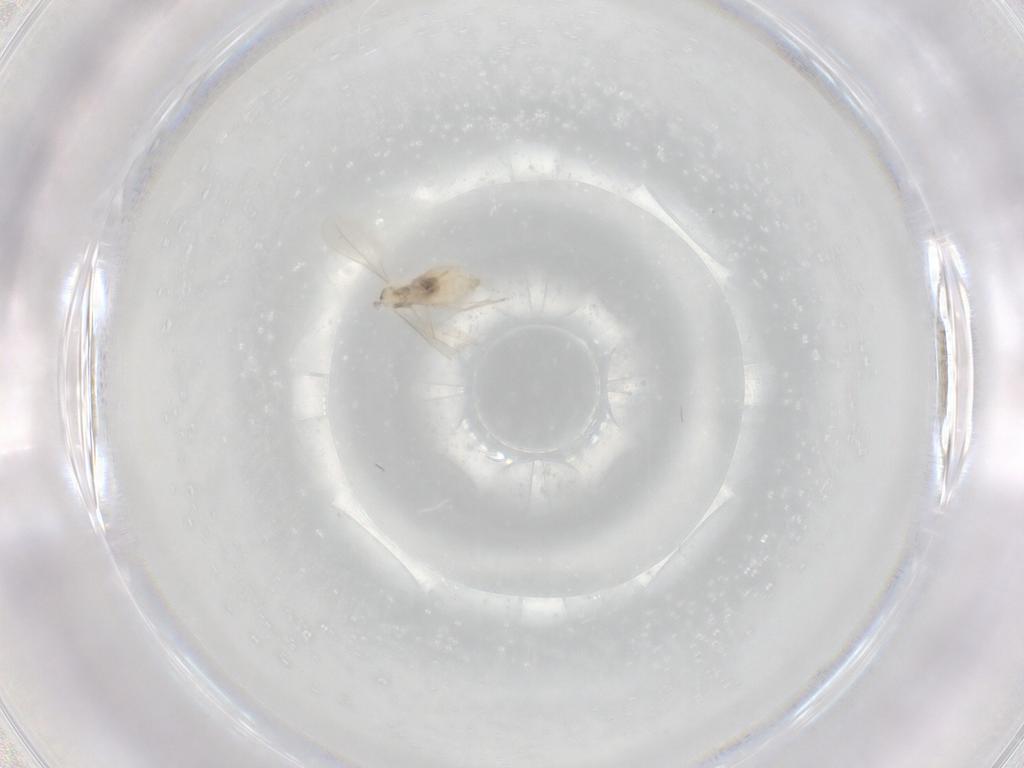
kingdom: Animalia
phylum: Arthropoda
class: Insecta
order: Diptera
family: Cecidomyiidae
